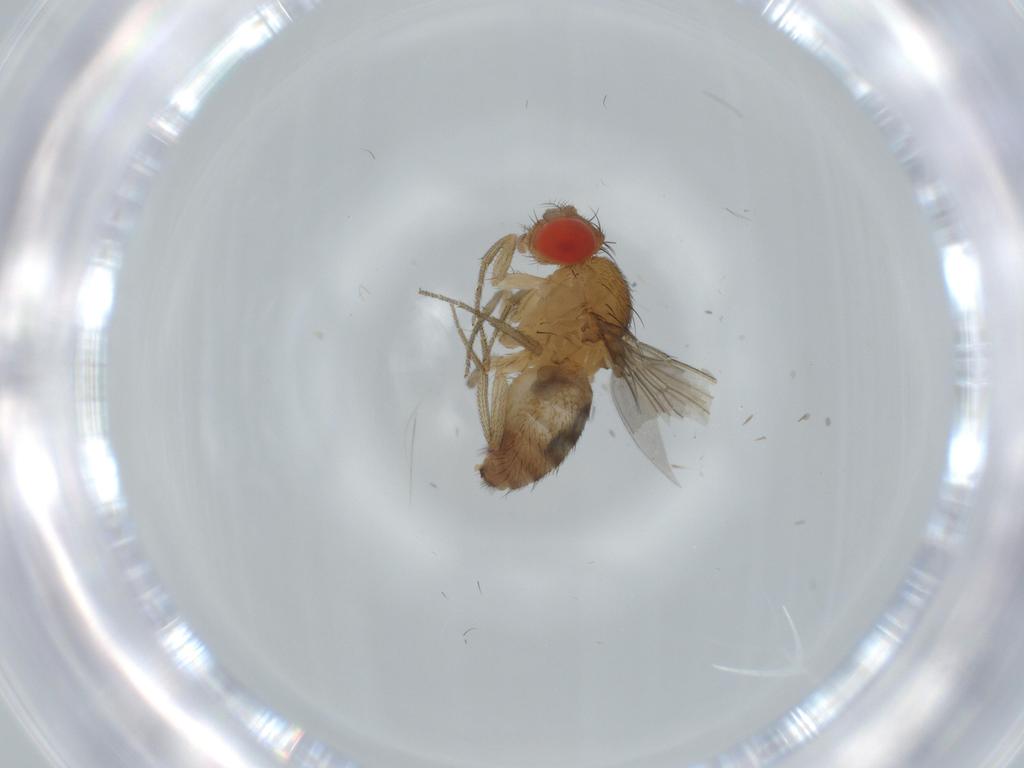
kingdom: Animalia
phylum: Arthropoda
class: Insecta
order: Diptera
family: Drosophilidae
